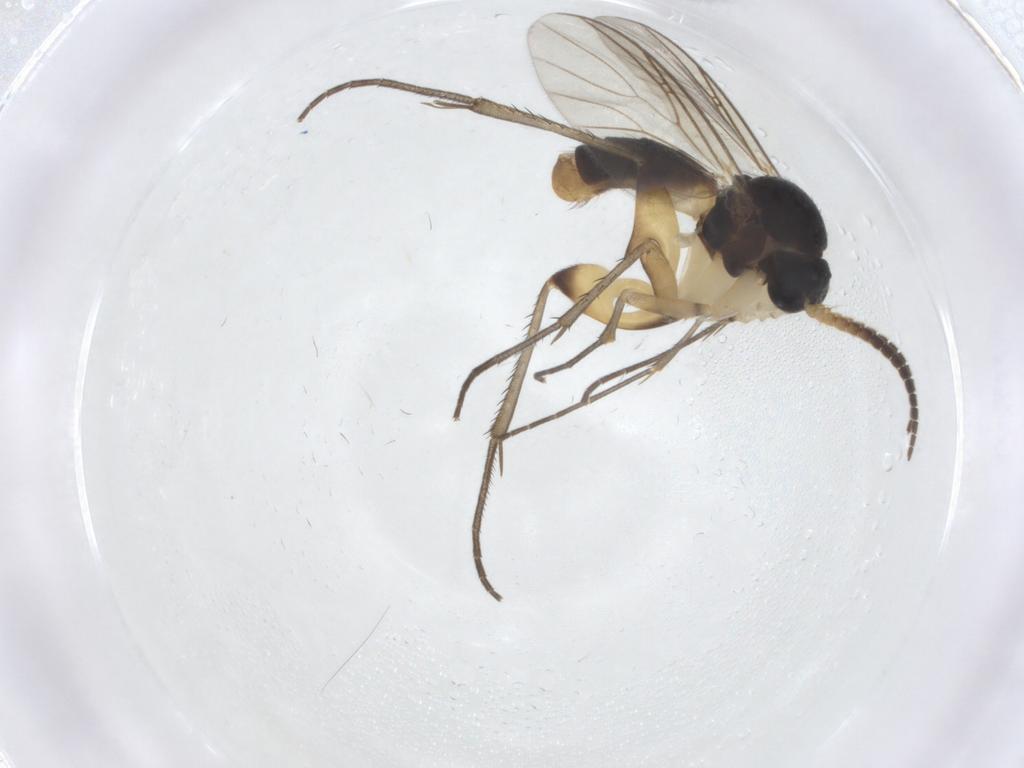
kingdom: Animalia
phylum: Arthropoda
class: Insecta
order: Diptera
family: Mycetophilidae
